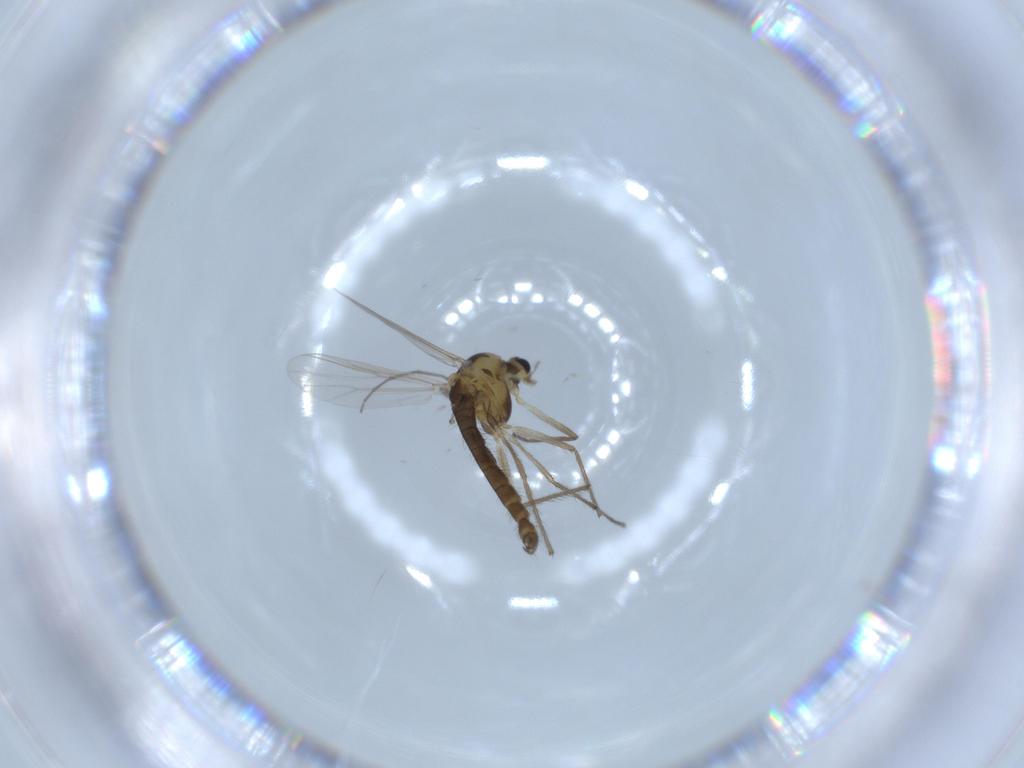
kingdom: Animalia
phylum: Arthropoda
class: Insecta
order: Diptera
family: Chironomidae
